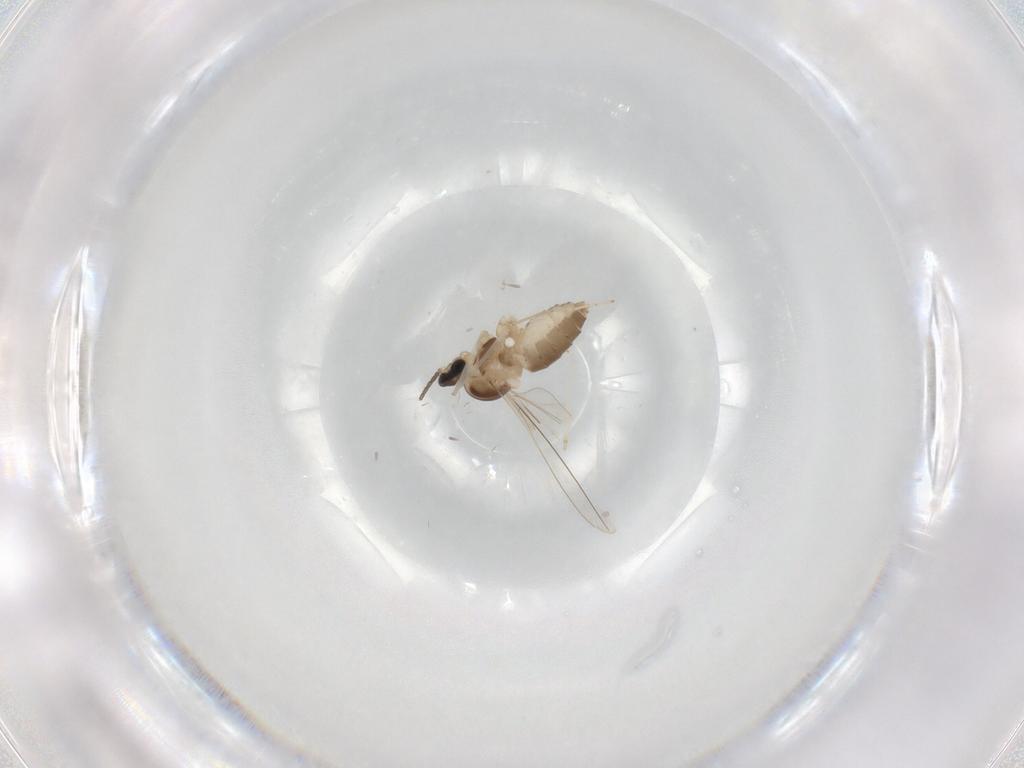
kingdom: Animalia
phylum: Arthropoda
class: Insecta
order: Diptera
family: Cecidomyiidae
